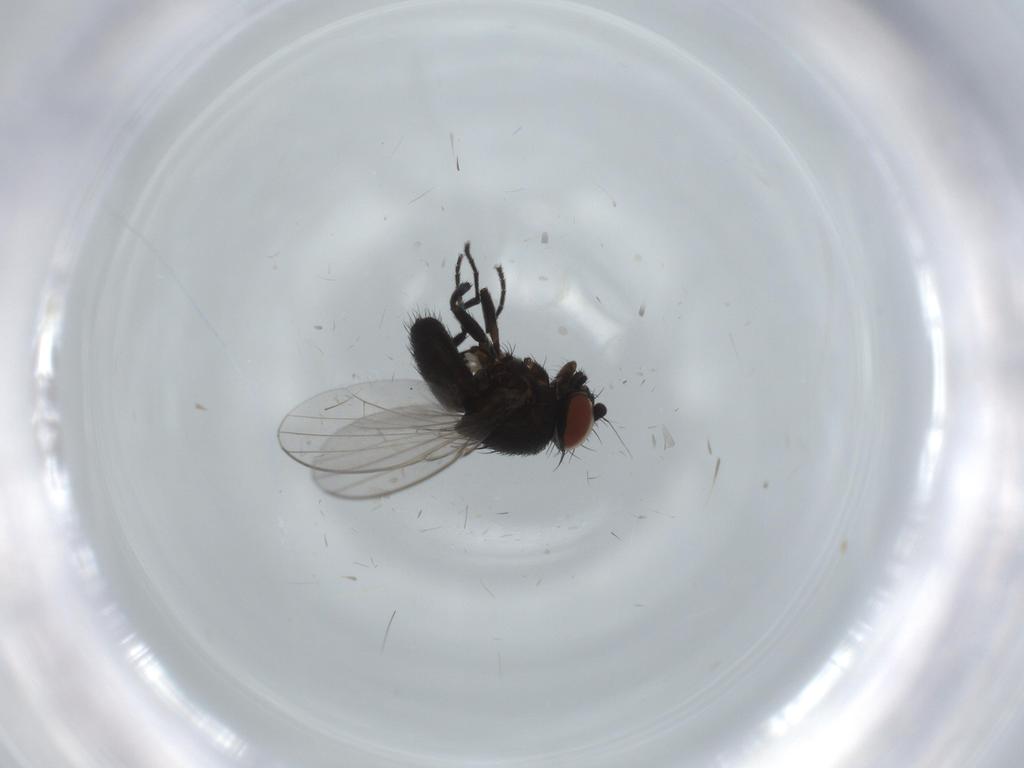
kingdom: Animalia
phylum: Arthropoda
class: Insecta
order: Diptera
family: Milichiidae
